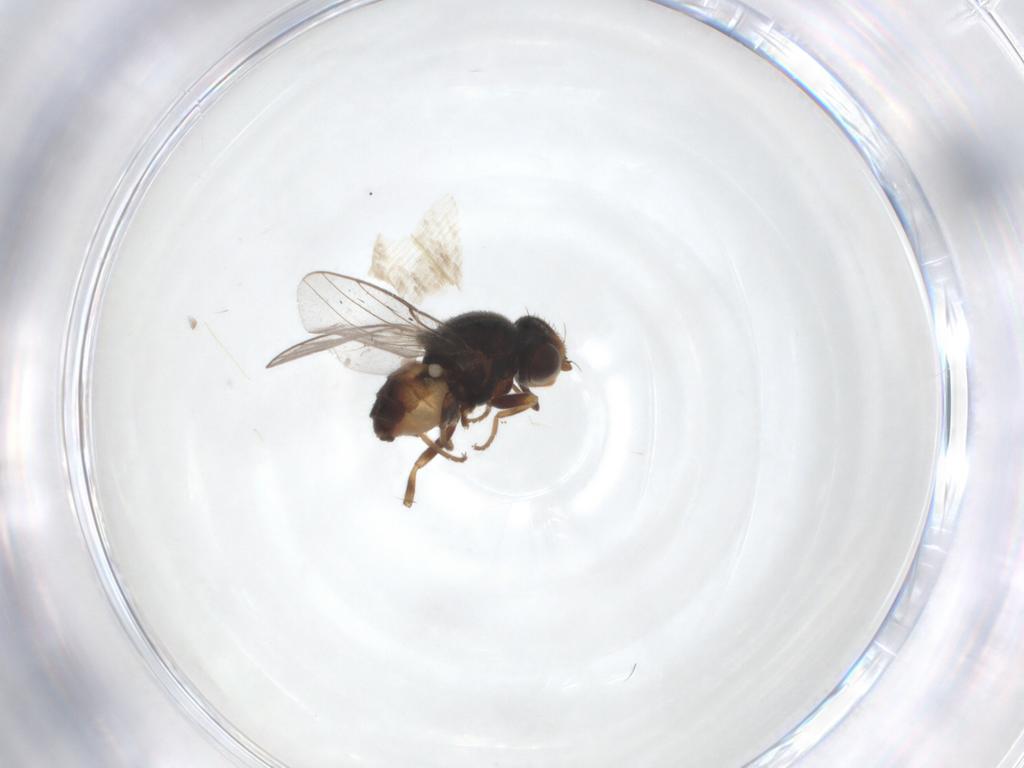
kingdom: Animalia
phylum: Arthropoda
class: Insecta
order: Diptera
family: Chloropidae
